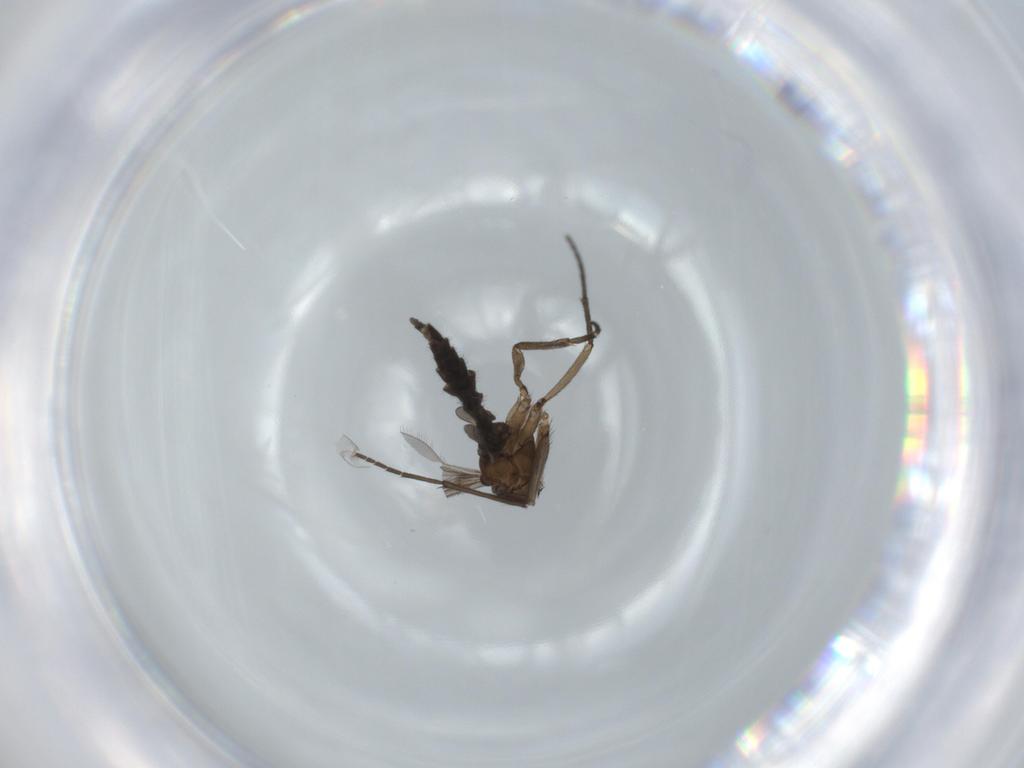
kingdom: Animalia
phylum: Arthropoda
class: Insecta
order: Diptera
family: Sciaridae
